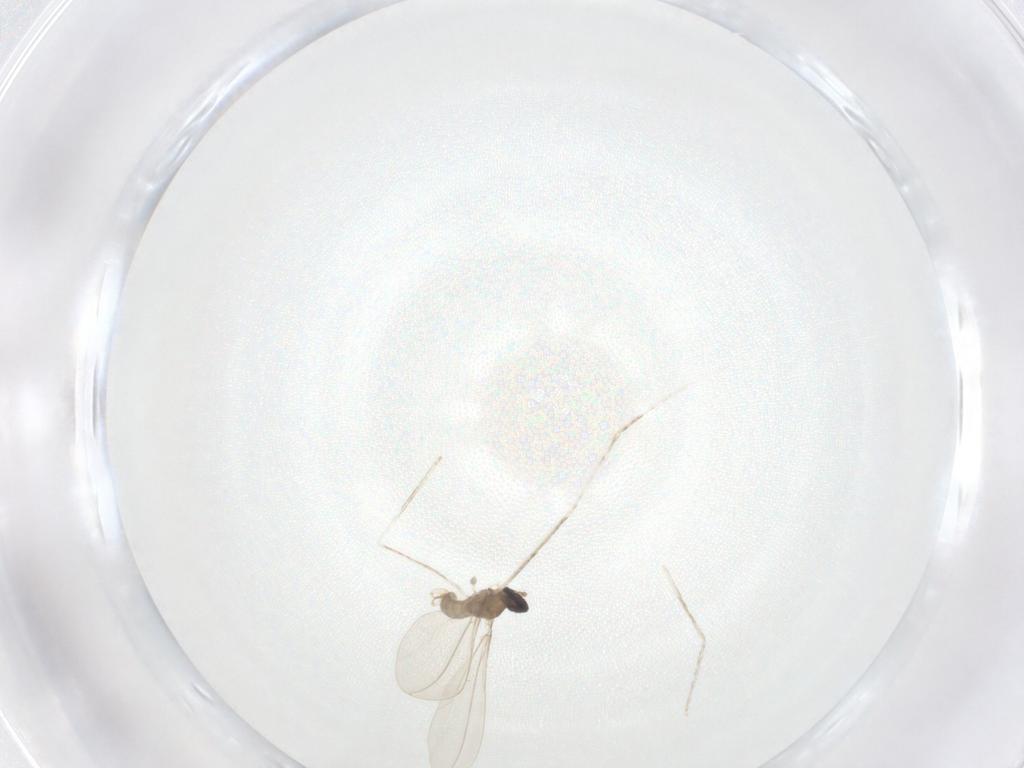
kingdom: Animalia
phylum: Arthropoda
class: Insecta
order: Diptera
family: Cecidomyiidae
